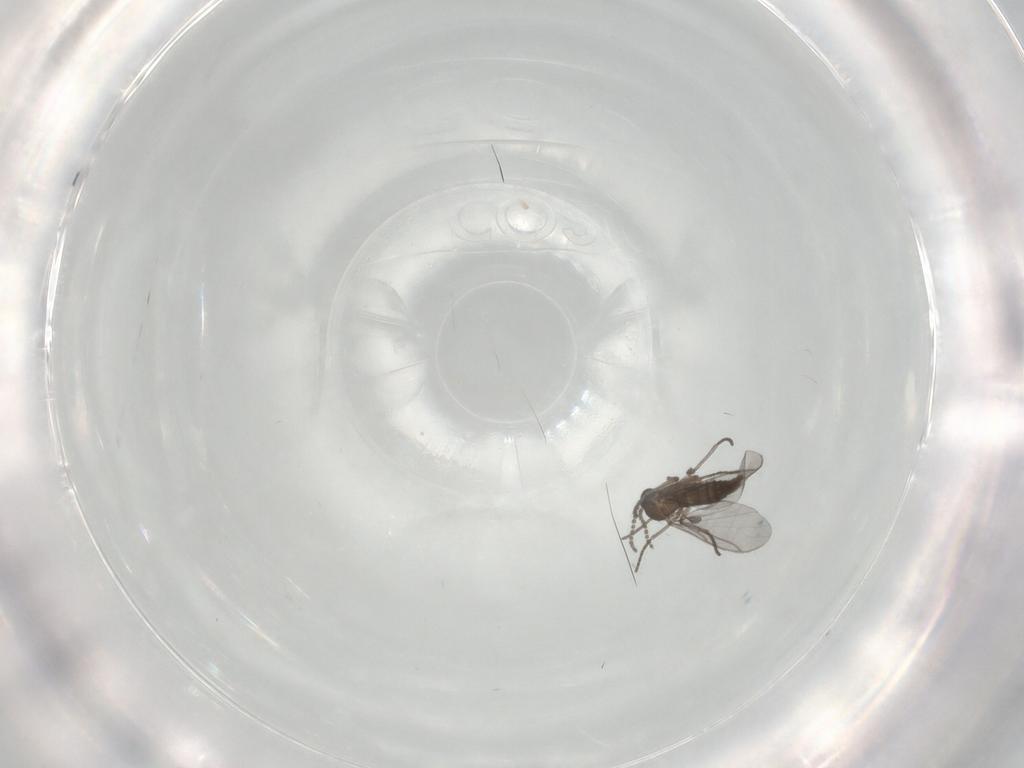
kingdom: Animalia
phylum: Arthropoda
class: Insecta
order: Diptera
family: Sciaridae
